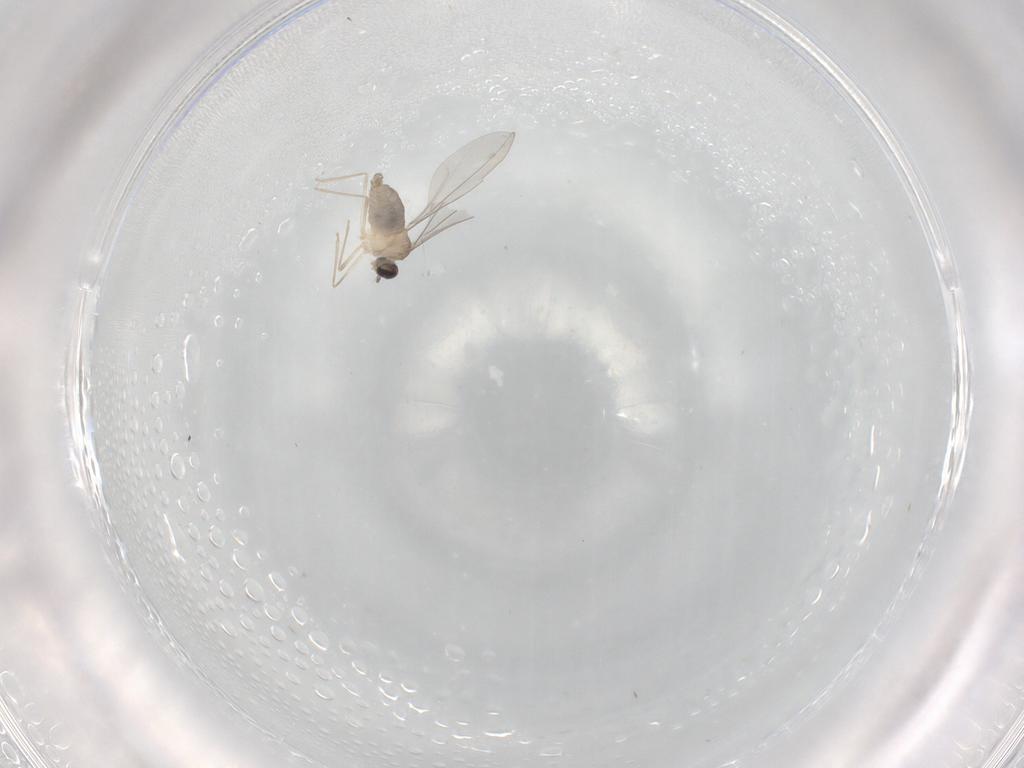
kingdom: Animalia
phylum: Arthropoda
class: Insecta
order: Diptera
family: Psychodidae
